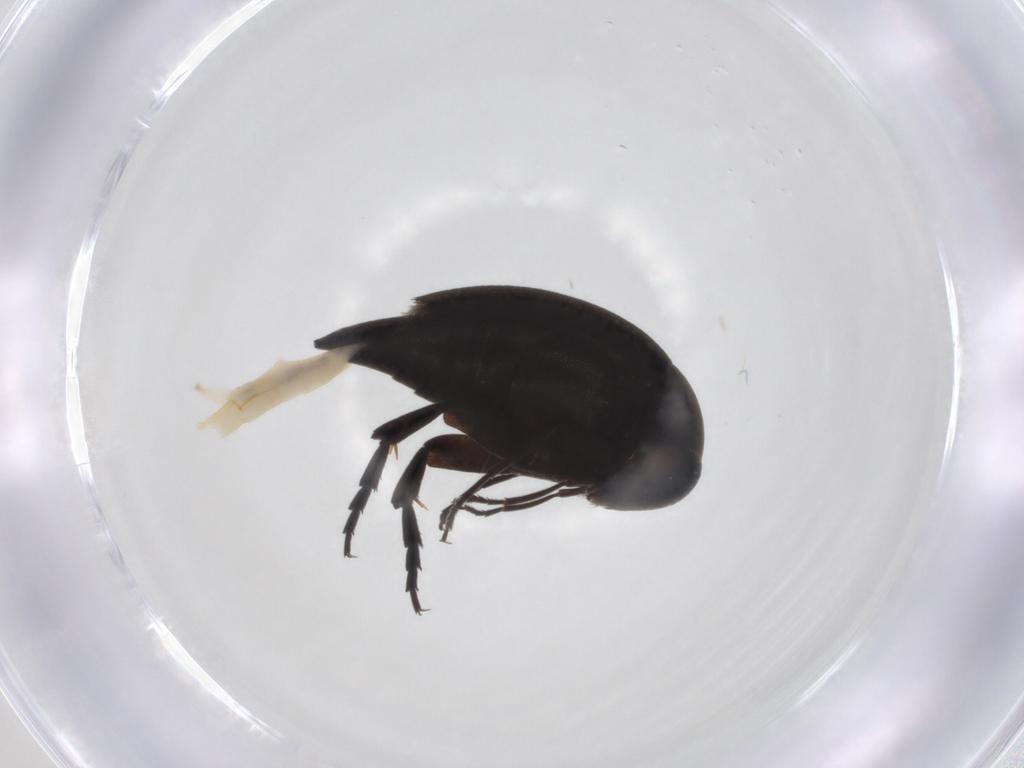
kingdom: Animalia
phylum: Arthropoda
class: Insecta
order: Coleoptera
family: Mordellidae
